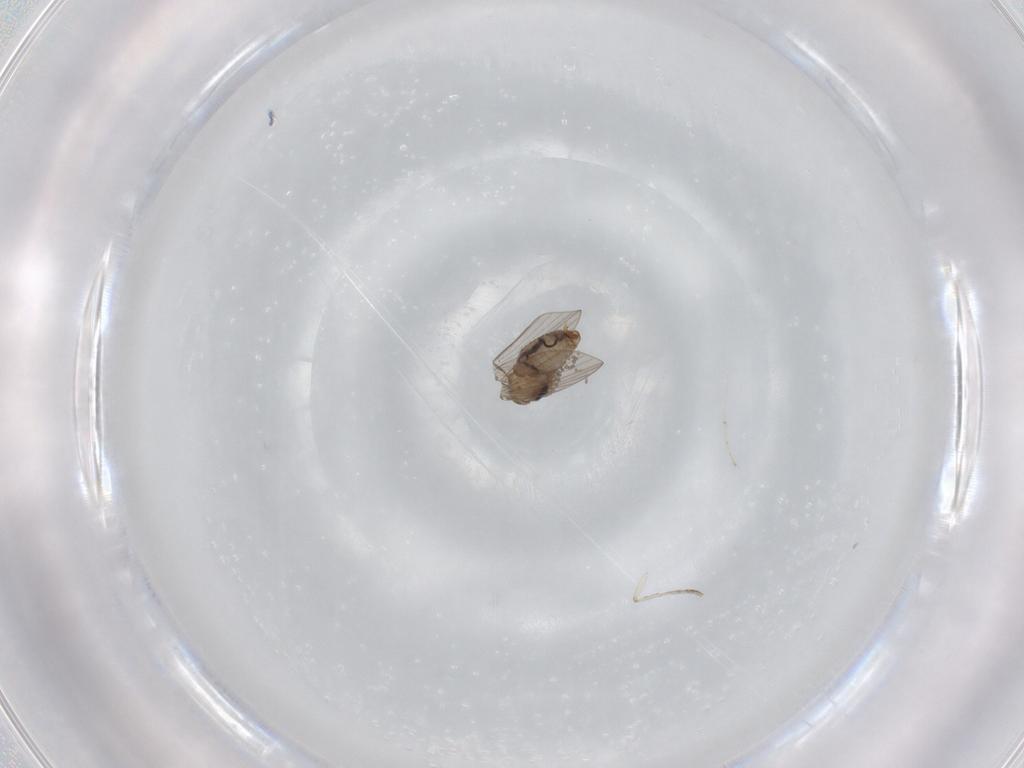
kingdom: Animalia
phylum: Arthropoda
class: Insecta
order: Diptera
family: Psychodidae
